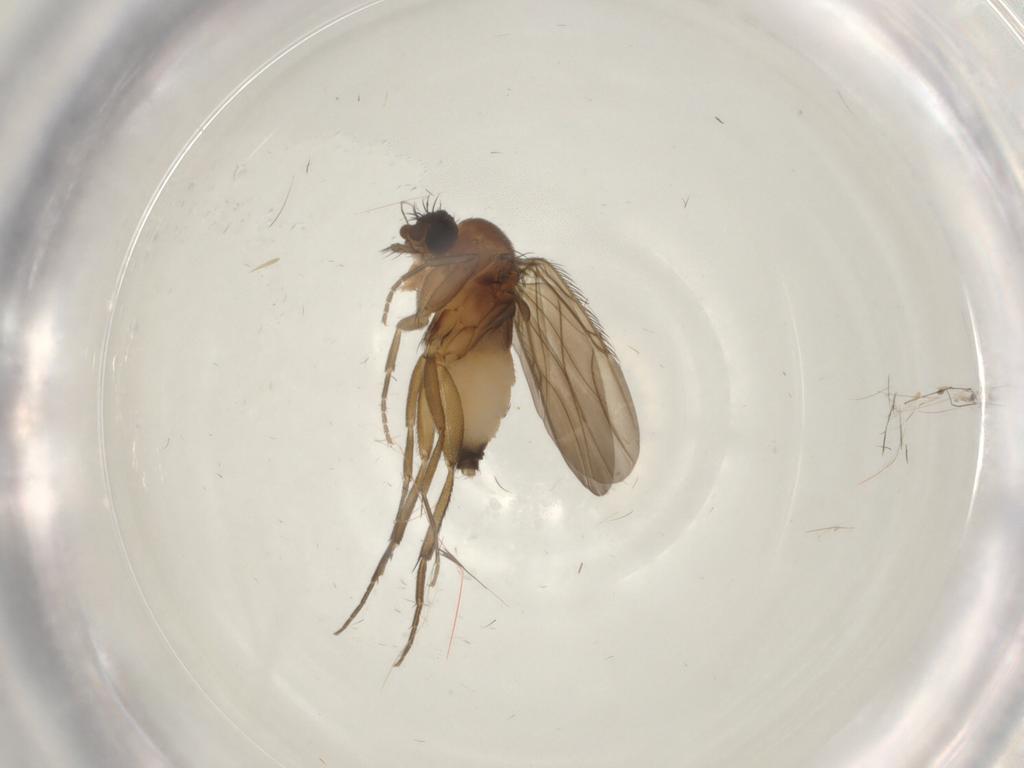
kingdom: Animalia
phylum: Arthropoda
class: Insecta
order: Diptera
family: Phoridae
